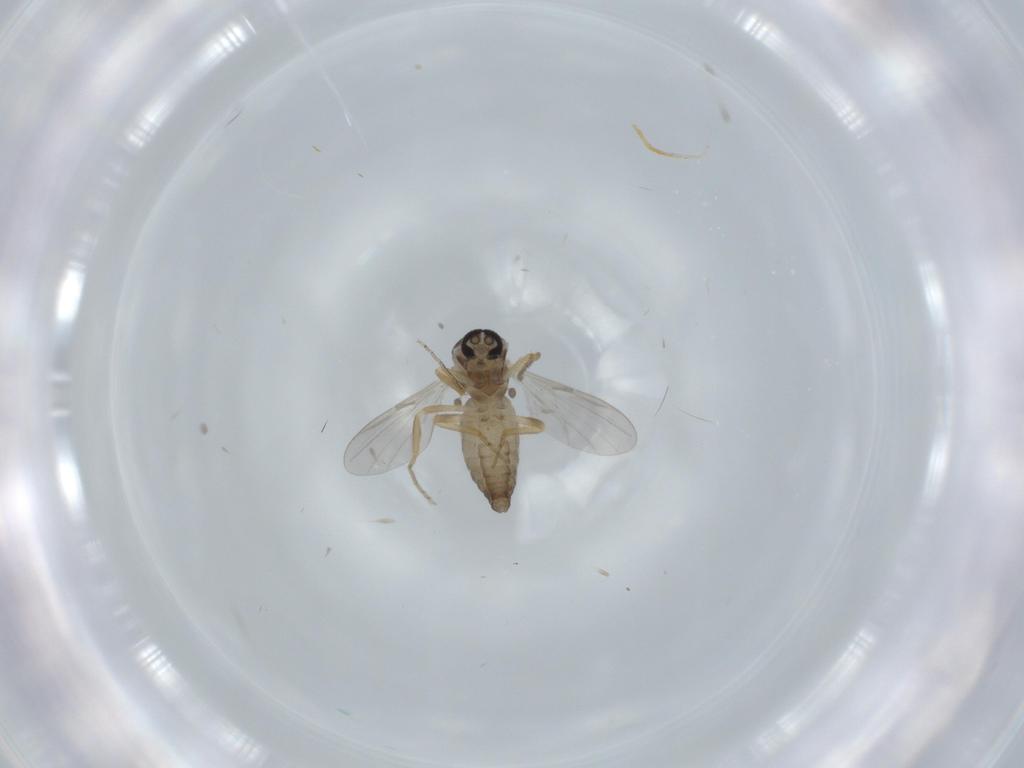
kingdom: Animalia
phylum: Arthropoda
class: Insecta
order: Diptera
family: Ceratopogonidae
